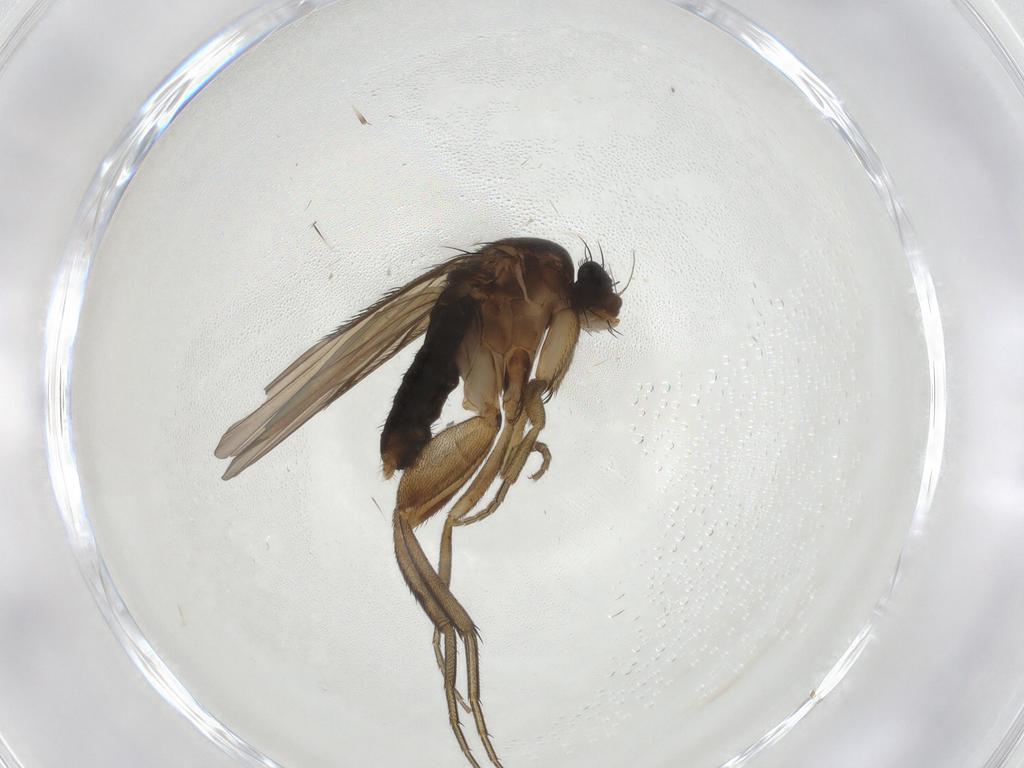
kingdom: Animalia
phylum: Arthropoda
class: Insecta
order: Diptera
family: Phoridae
